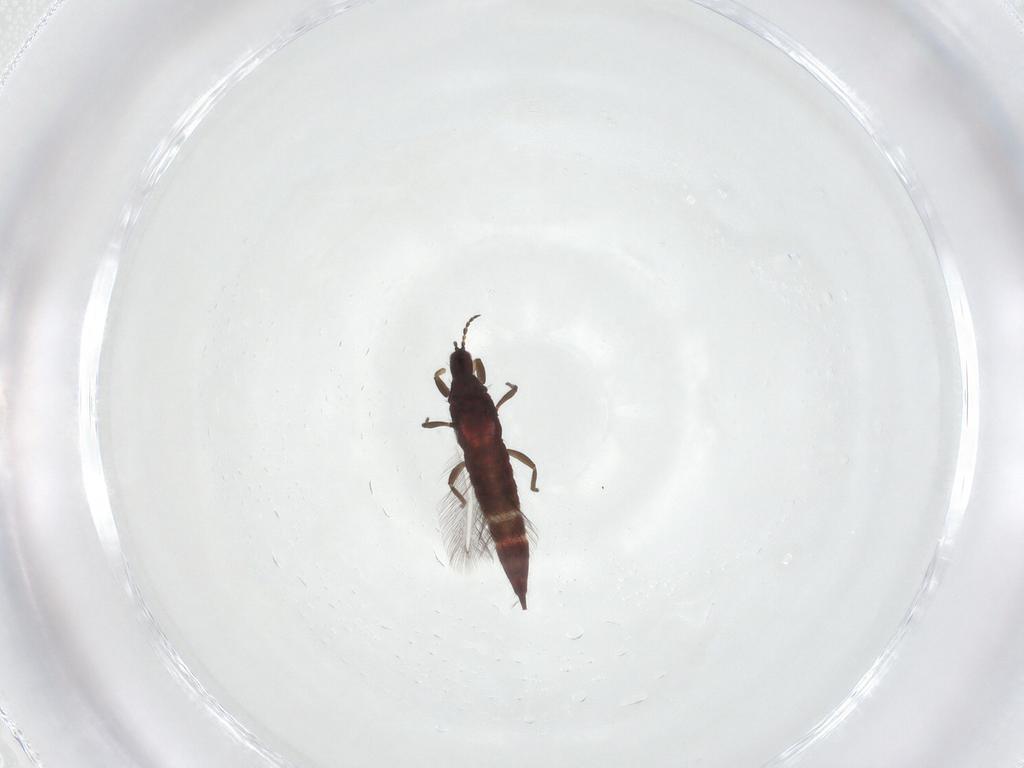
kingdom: Animalia
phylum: Arthropoda
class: Insecta
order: Thysanoptera
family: Phlaeothripidae
